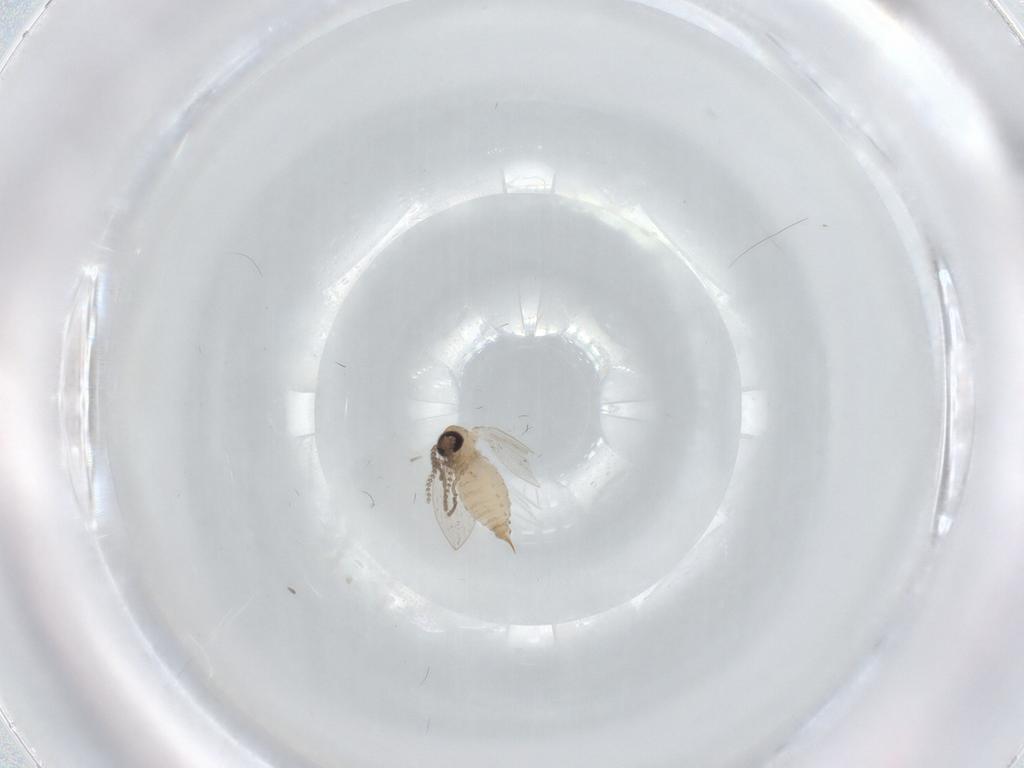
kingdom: Animalia
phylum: Arthropoda
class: Insecta
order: Diptera
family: Psychodidae
